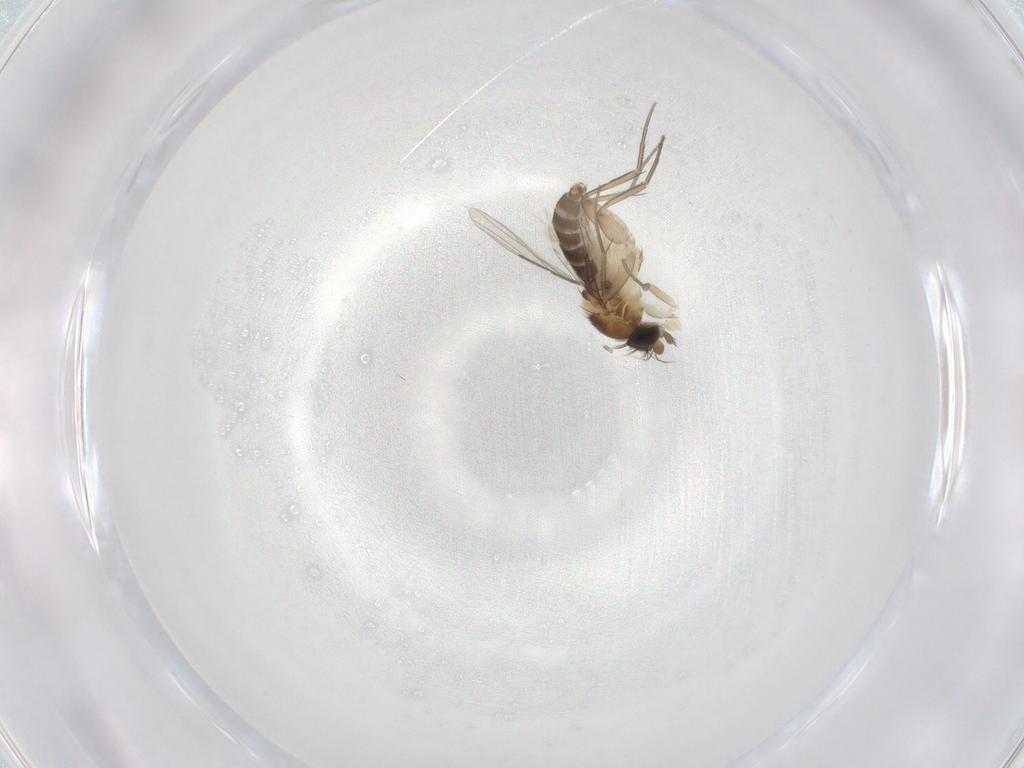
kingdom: Animalia
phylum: Arthropoda
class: Insecta
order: Diptera
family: Phoridae
